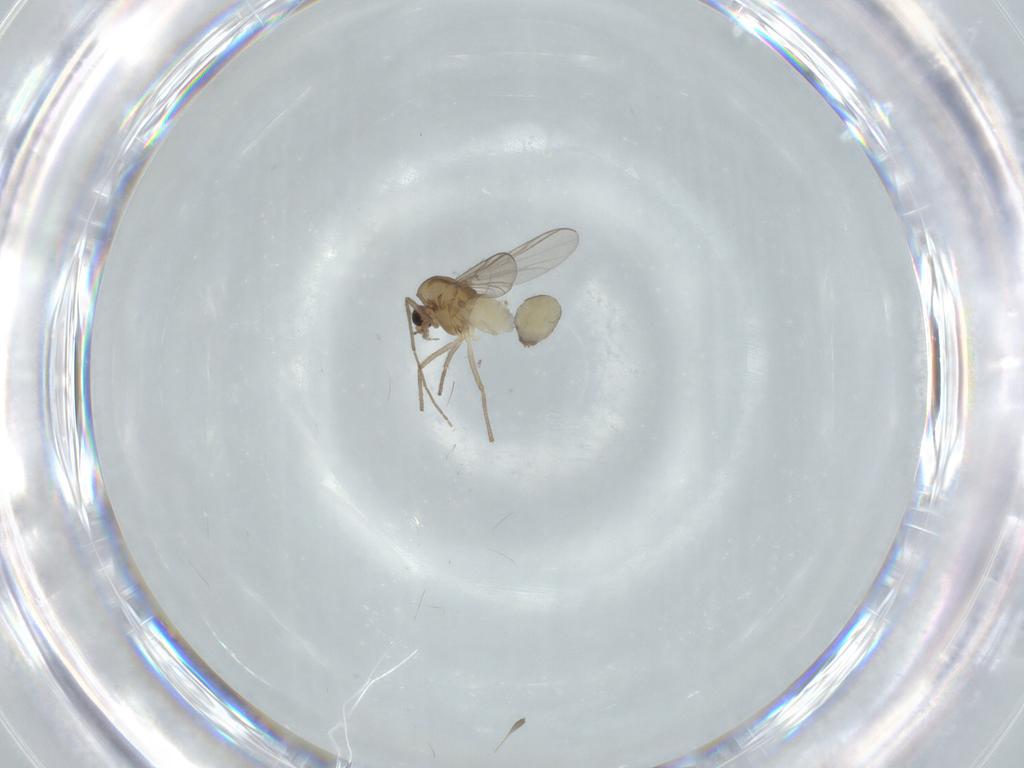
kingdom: Animalia
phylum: Arthropoda
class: Insecta
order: Diptera
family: Chironomidae
